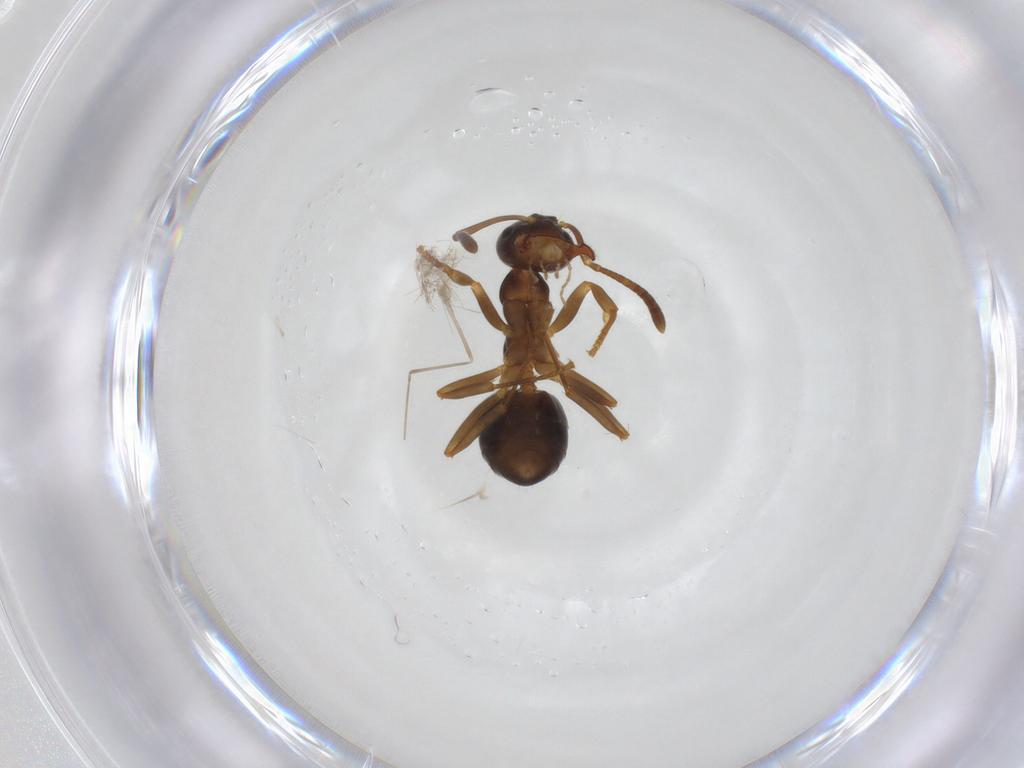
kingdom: Animalia
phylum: Arthropoda
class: Insecta
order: Hymenoptera
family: Formicidae
